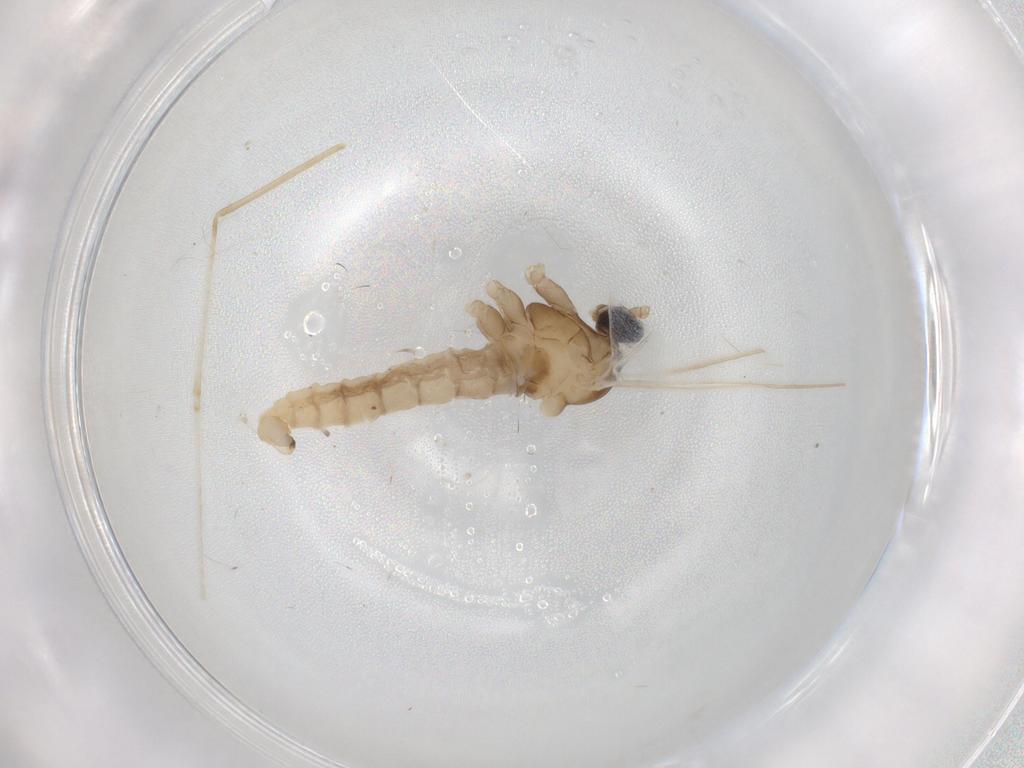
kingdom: Animalia
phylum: Arthropoda
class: Insecta
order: Diptera
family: Cecidomyiidae
